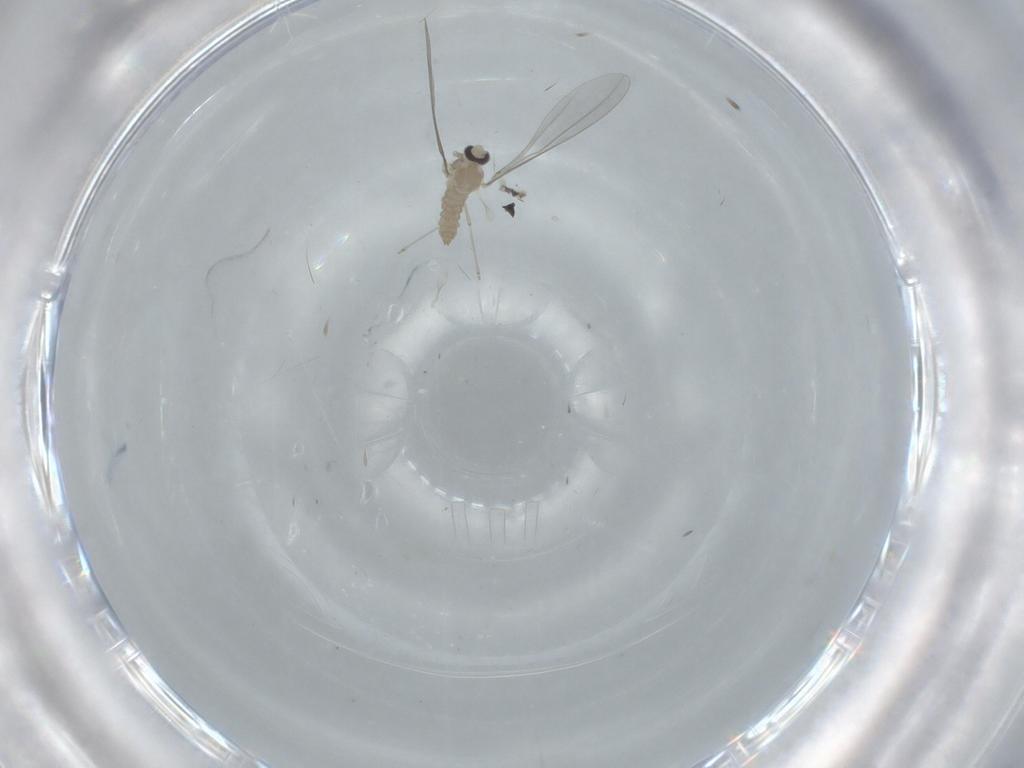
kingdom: Animalia
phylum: Arthropoda
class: Insecta
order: Diptera
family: Cecidomyiidae
